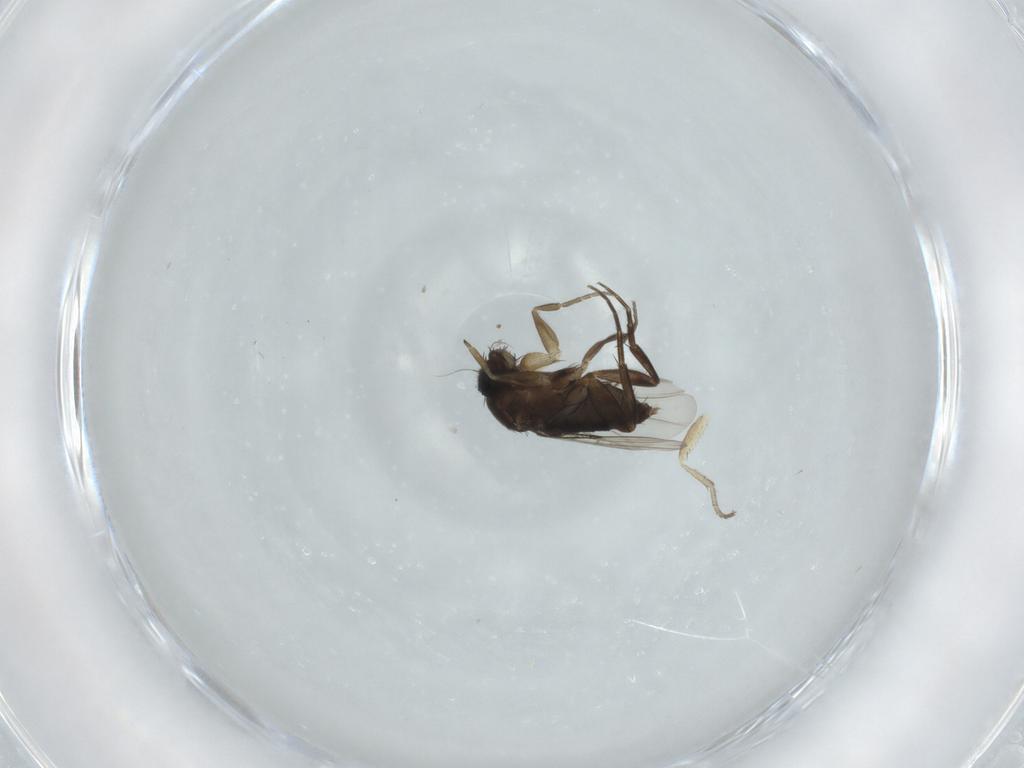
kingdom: Animalia
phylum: Arthropoda
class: Insecta
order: Diptera
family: Phoridae
